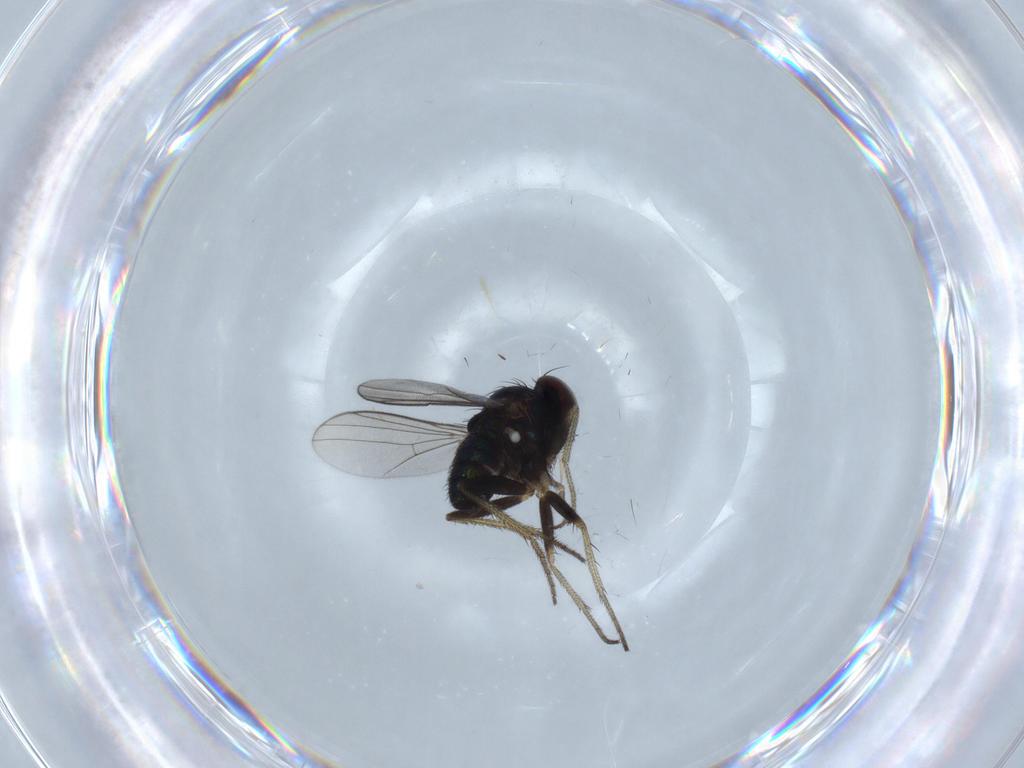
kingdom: Animalia
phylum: Arthropoda
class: Insecta
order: Diptera
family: Dolichopodidae
